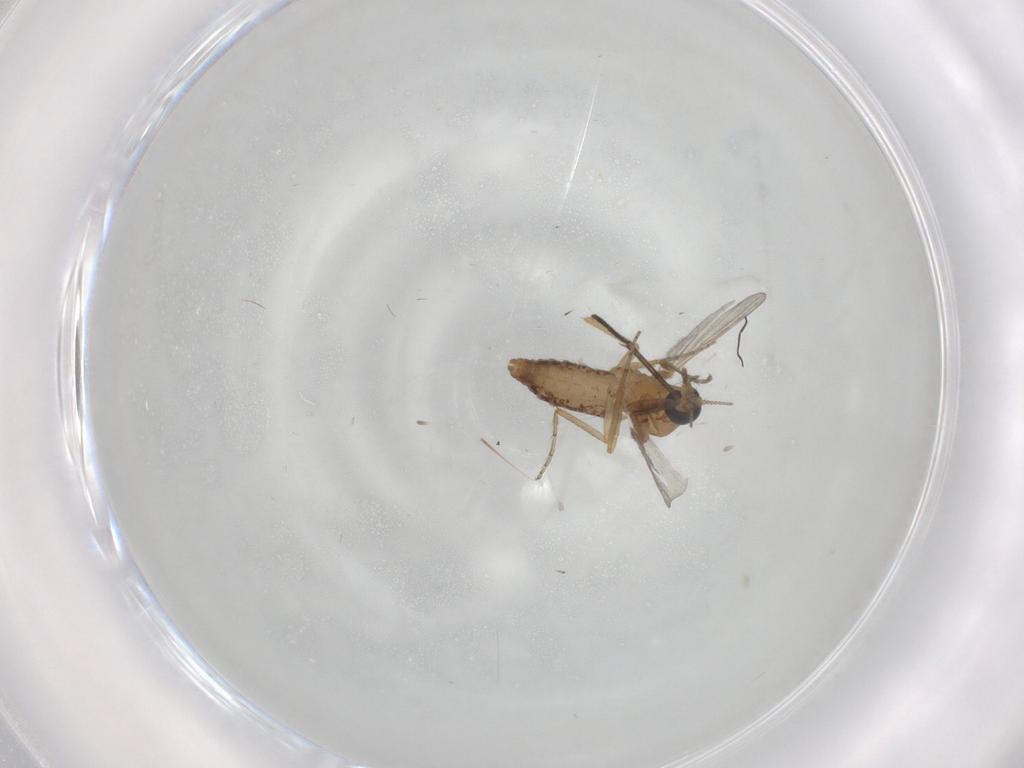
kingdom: Animalia
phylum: Arthropoda
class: Insecta
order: Diptera
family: Ceratopogonidae
